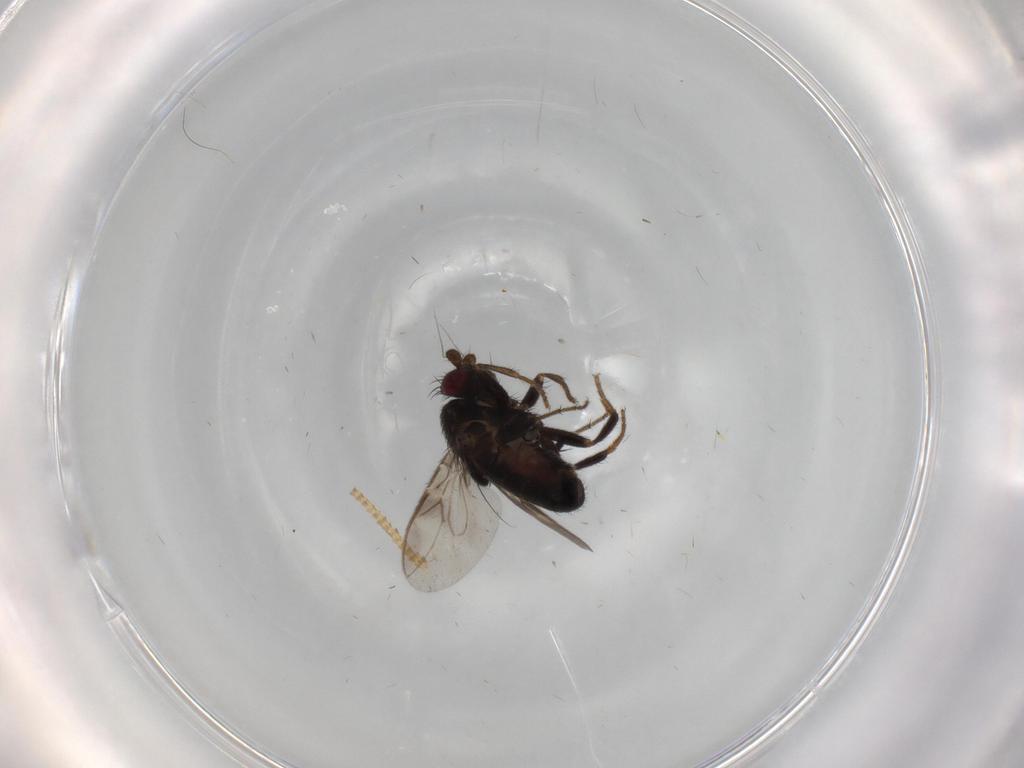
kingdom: Animalia
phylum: Arthropoda
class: Insecta
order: Diptera
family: Sphaeroceridae
